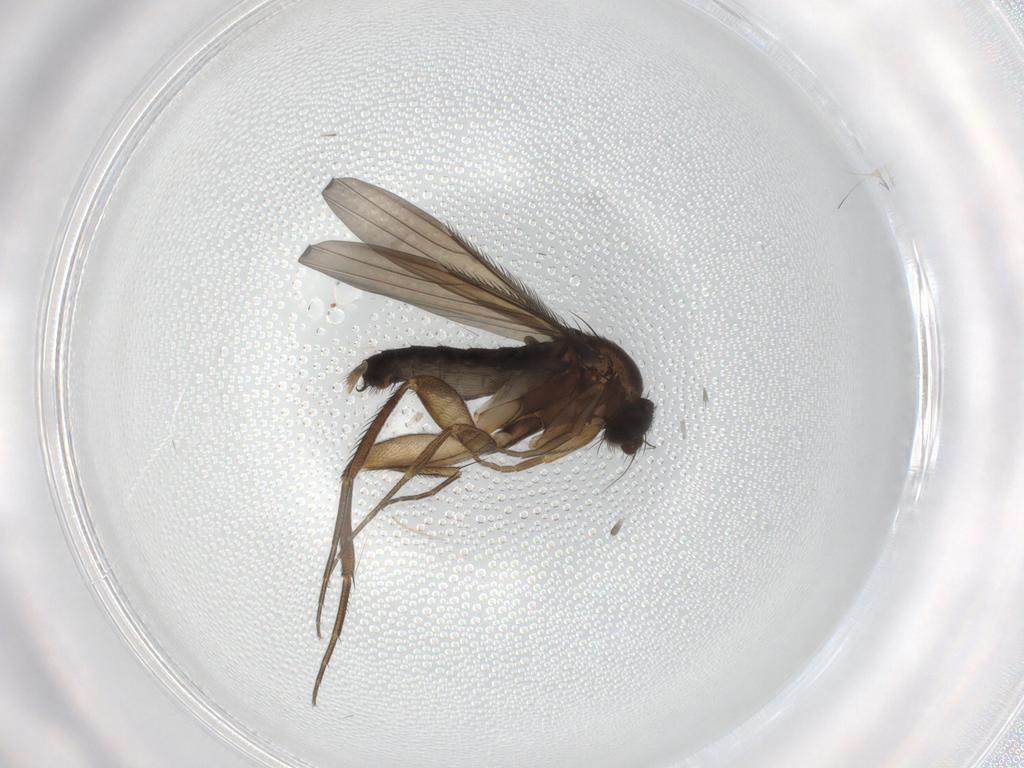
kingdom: Animalia
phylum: Arthropoda
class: Insecta
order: Diptera
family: Phoridae
